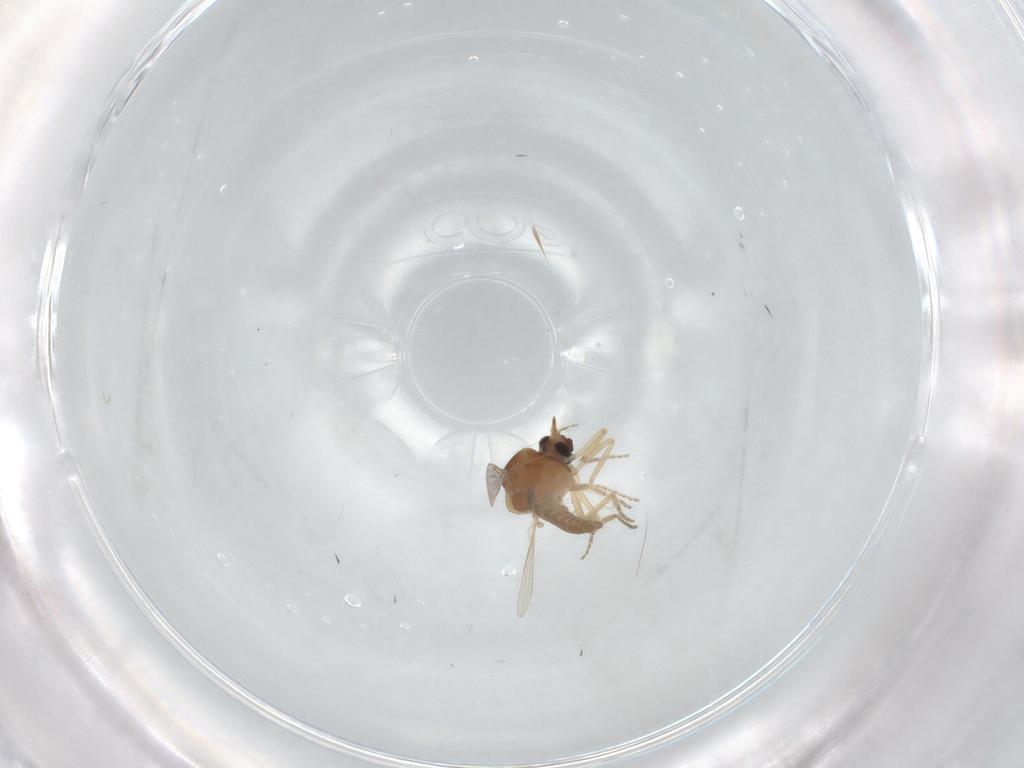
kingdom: Animalia
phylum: Arthropoda
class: Insecta
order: Diptera
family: Ceratopogonidae
